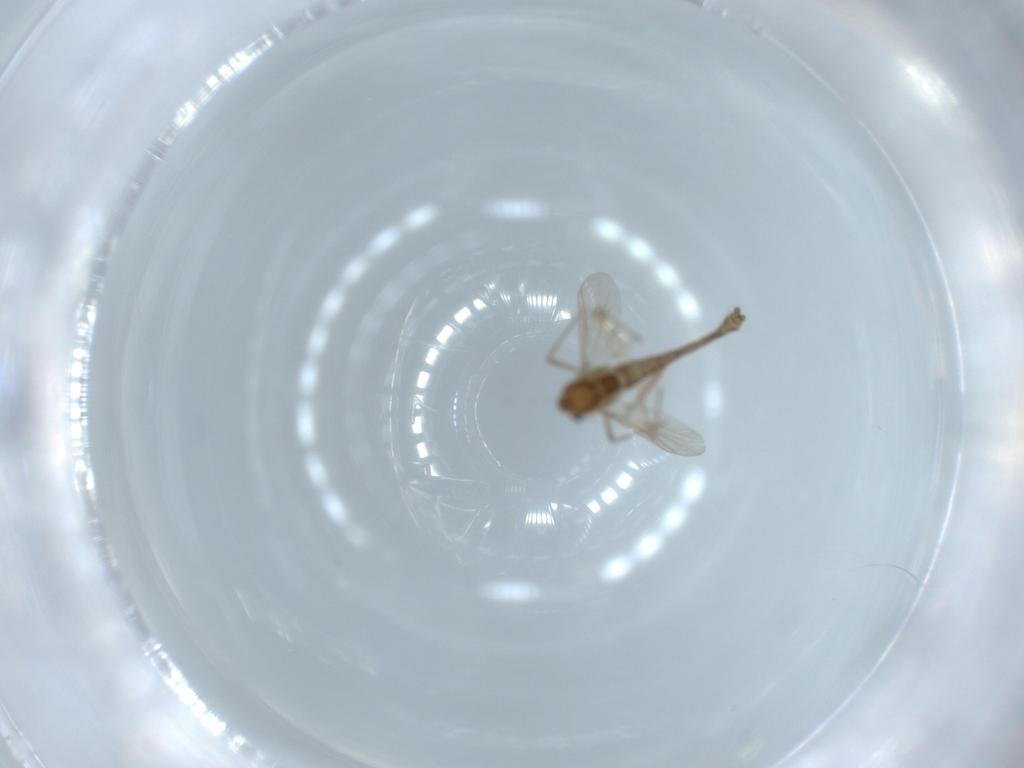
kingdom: Animalia
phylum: Arthropoda
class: Insecta
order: Diptera
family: Chironomidae
